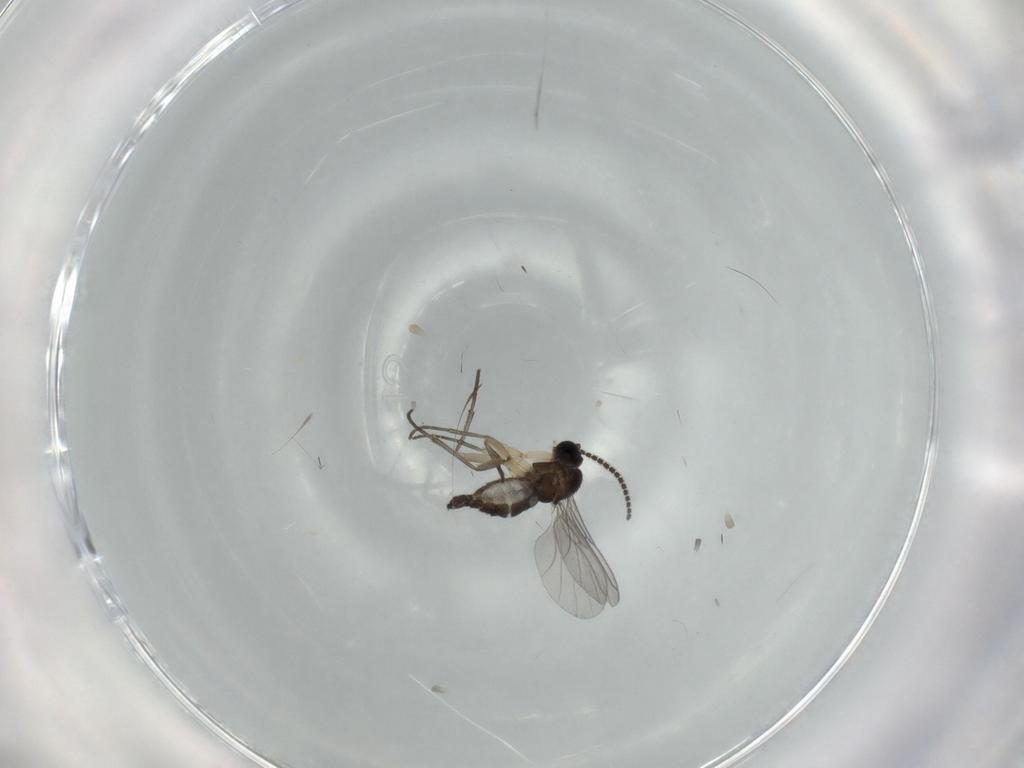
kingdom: Animalia
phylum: Arthropoda
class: Insecta
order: Diptera
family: Sciaridae
